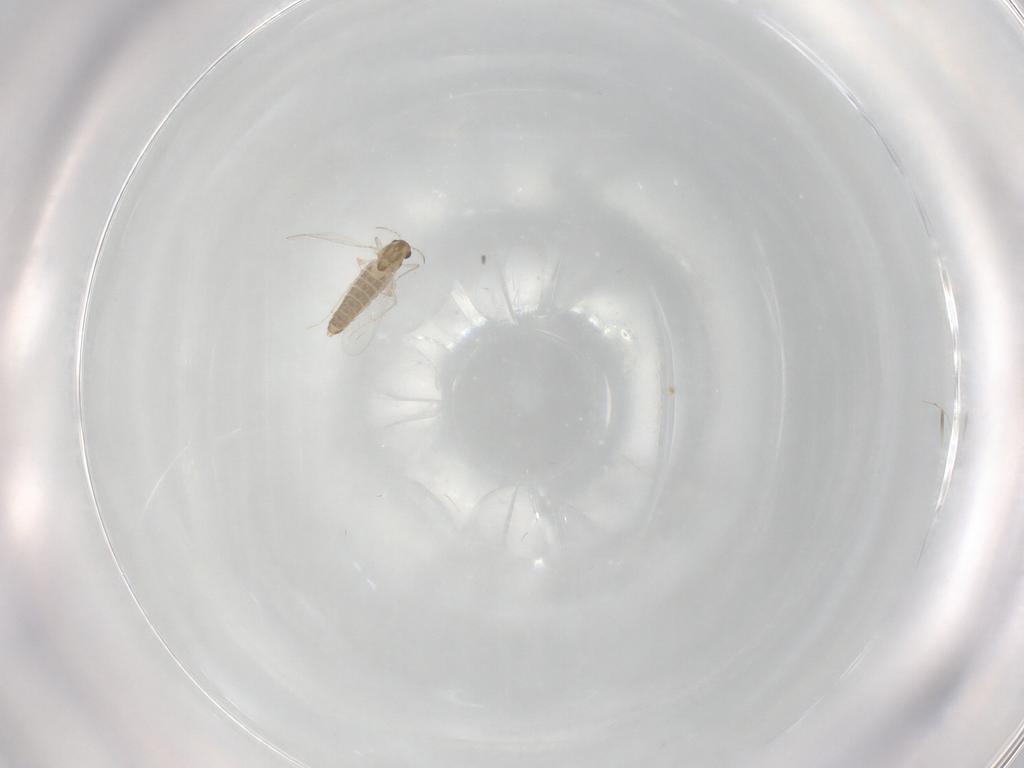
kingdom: Animalia
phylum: Arthropoda
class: Insecta
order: Diptera
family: Chironomidae
